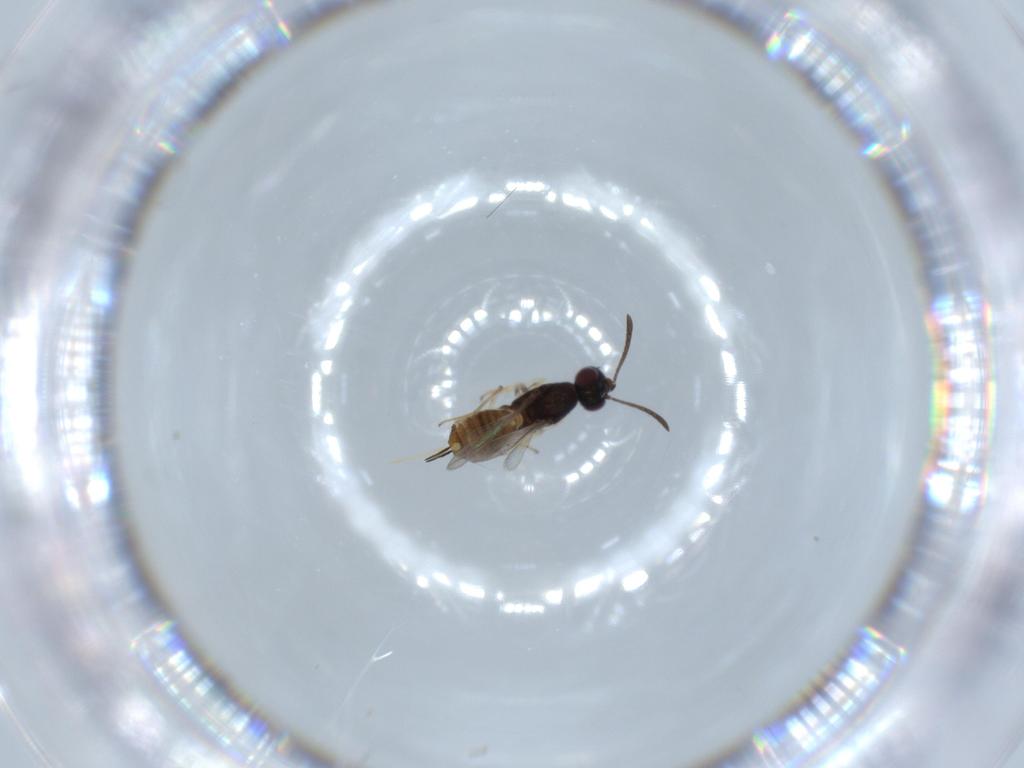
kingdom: Animalia
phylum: Arthropoda
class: Insecta
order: Hymenoptera
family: Eupelmidae
